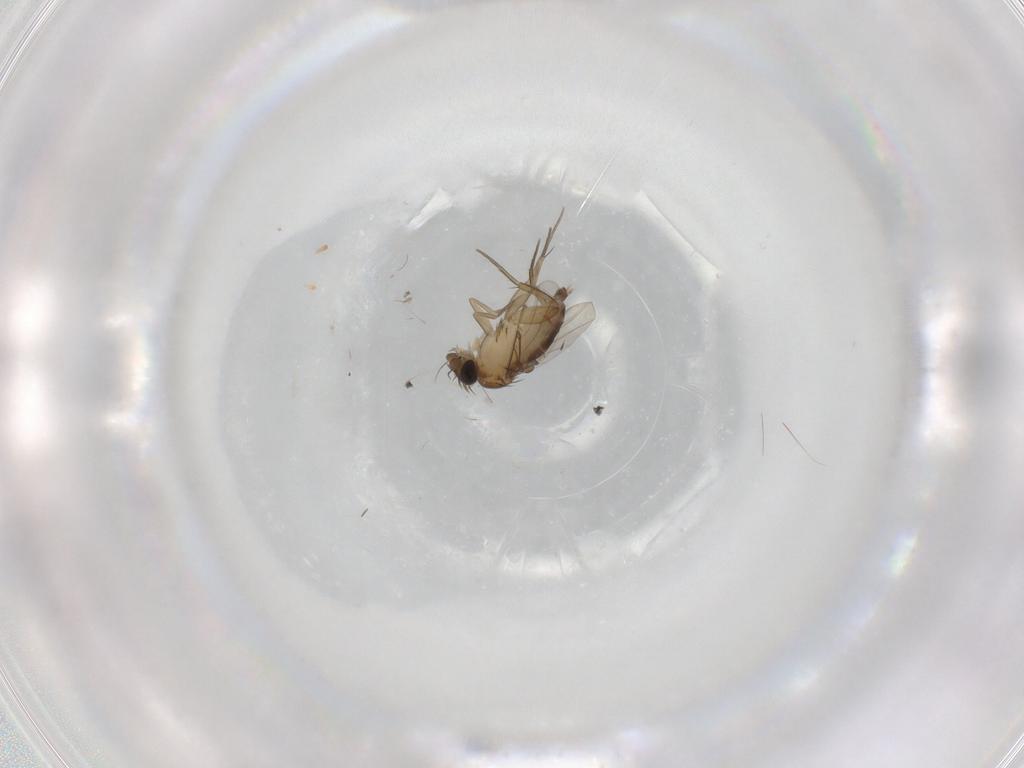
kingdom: Animalia
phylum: Arthropoda
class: Insecta
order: Diptera
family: Phoridae
